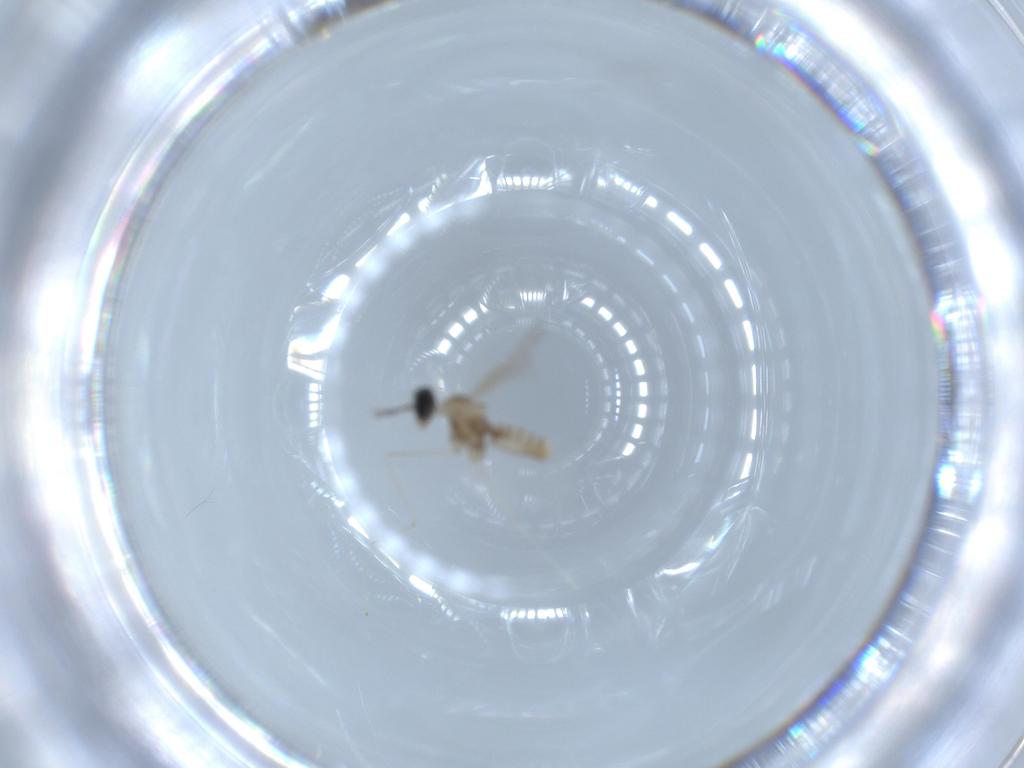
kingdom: Animalia
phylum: Arthropoda
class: Insecta
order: Diptera
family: Cecidomyiidae
